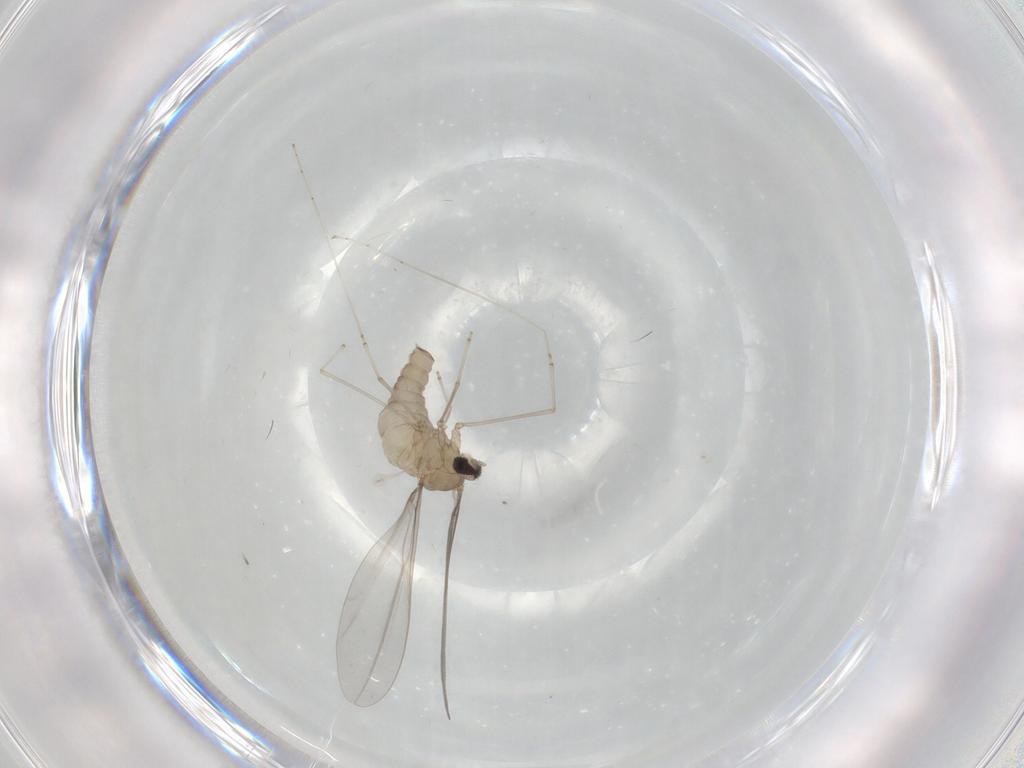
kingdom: Animalia
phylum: Arthropoda
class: Insecta
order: Diptera
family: Cecidomyiidae
